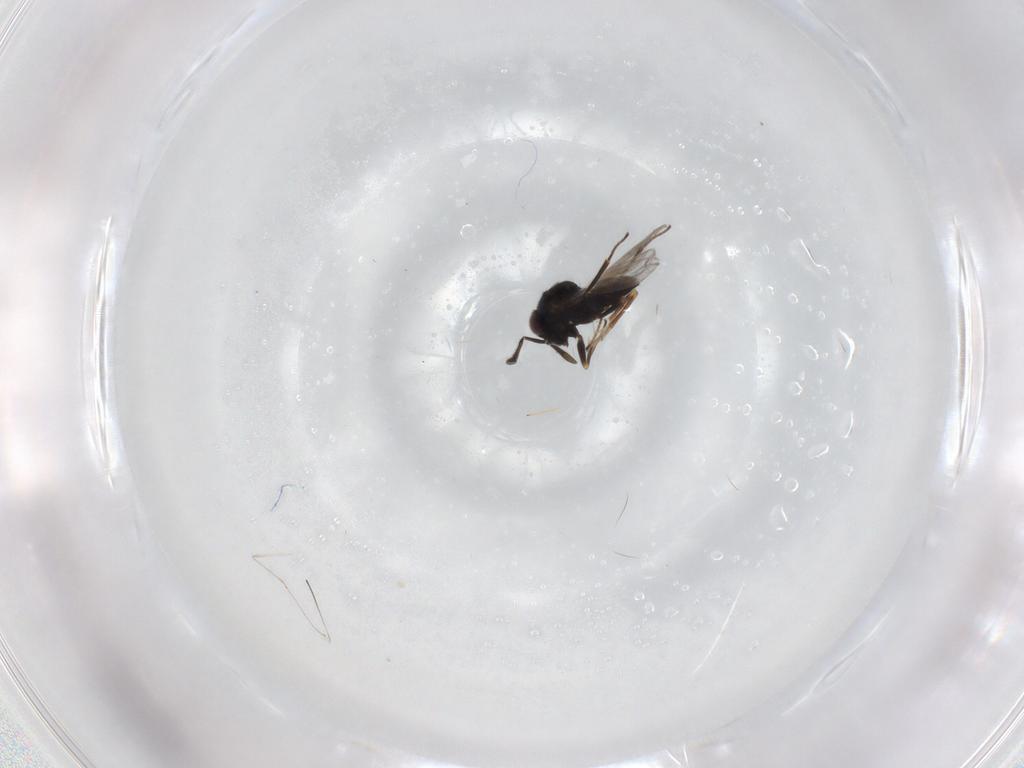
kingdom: Animalia
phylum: Arthropoda
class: Insecta
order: Hymenoptera
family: Encyrtidae
